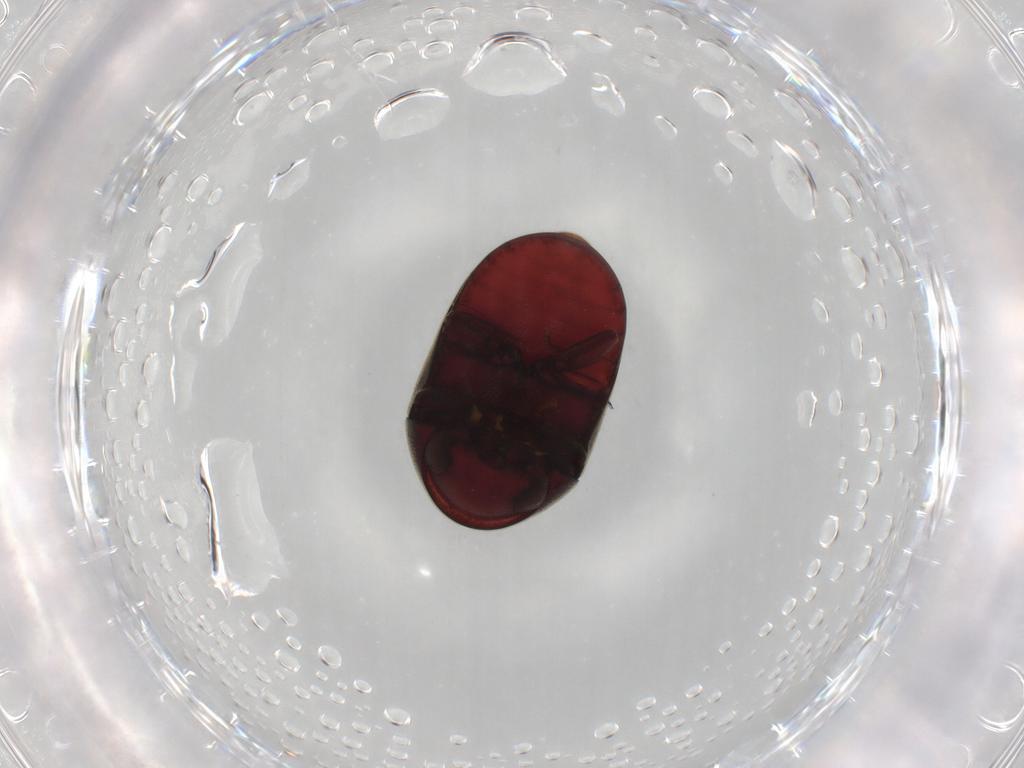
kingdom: Animalia
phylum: Arthropoda
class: Insecta
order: Coleoptera
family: Ptinidae
